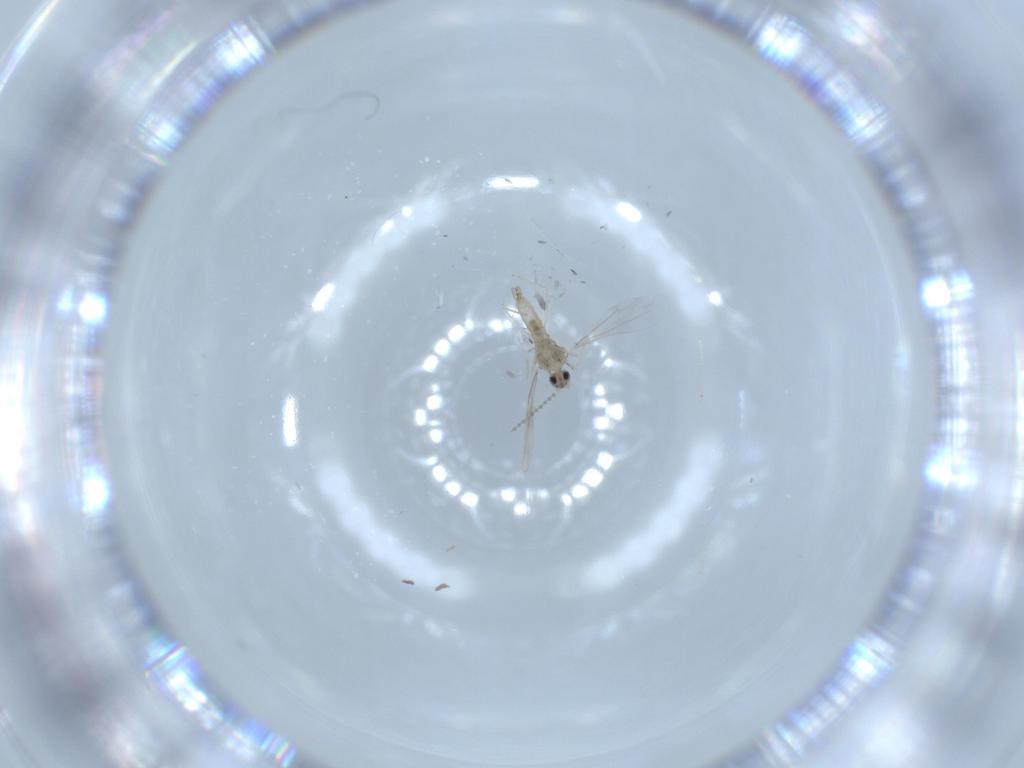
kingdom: Animalia
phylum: Arthropoda
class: Insecta
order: Diptera
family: Cecidomyiidae
